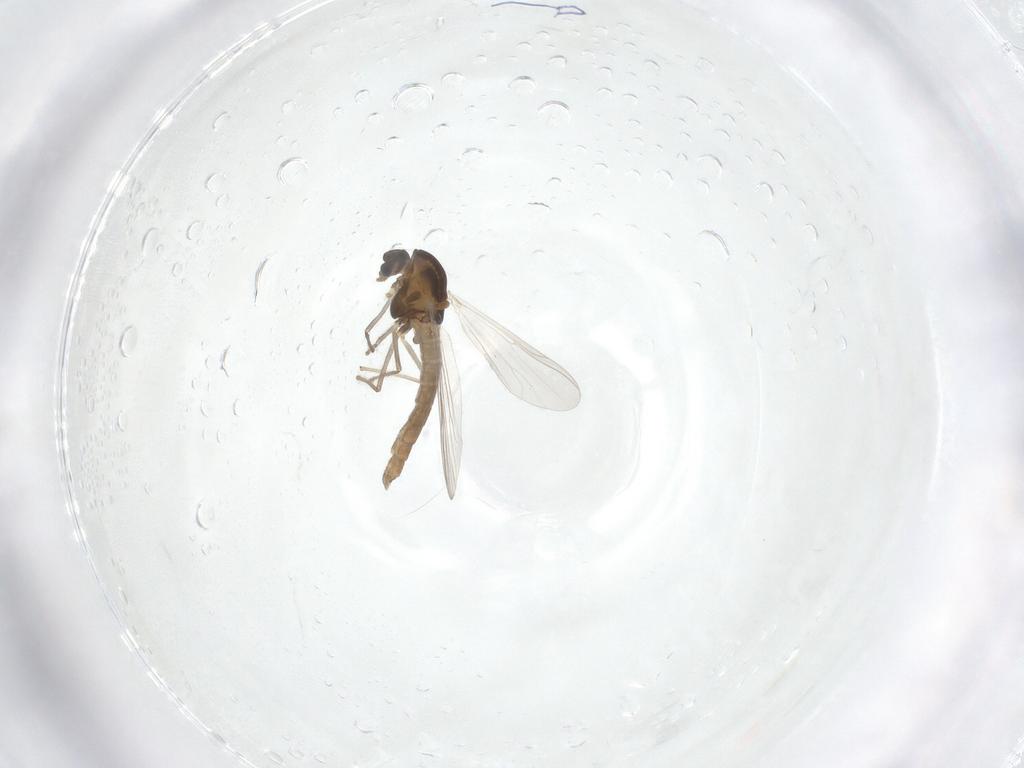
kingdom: Animalia
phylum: Arthropoda
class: Insecta
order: Diptera
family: Chironomidae
